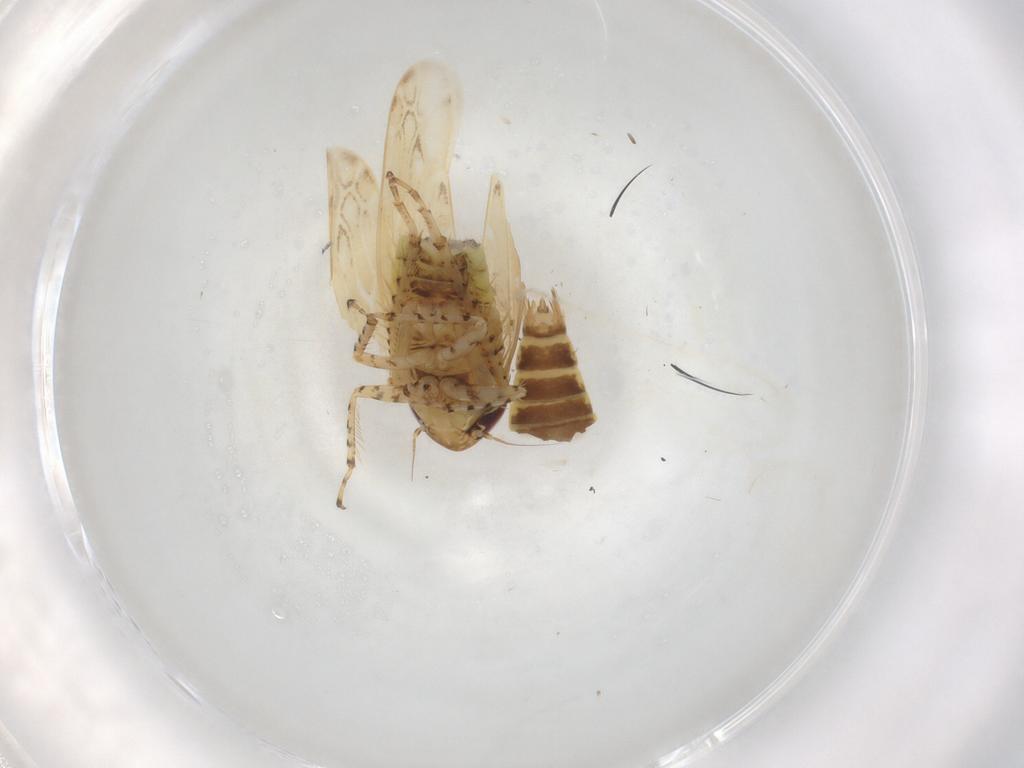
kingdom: Animalia
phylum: Arthropoda
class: Insecta
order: Hemiptera
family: Cicadellidae
